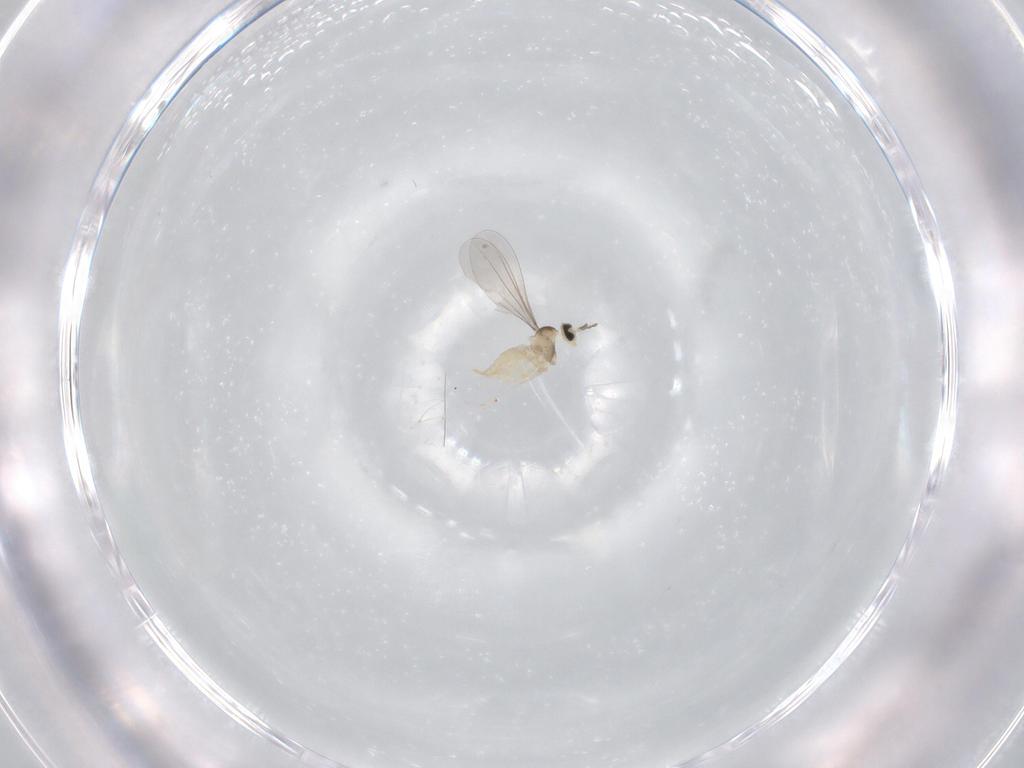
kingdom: Animalia
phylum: Arthropoda
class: Insecta
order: Diptera
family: Cecidomyiidae
